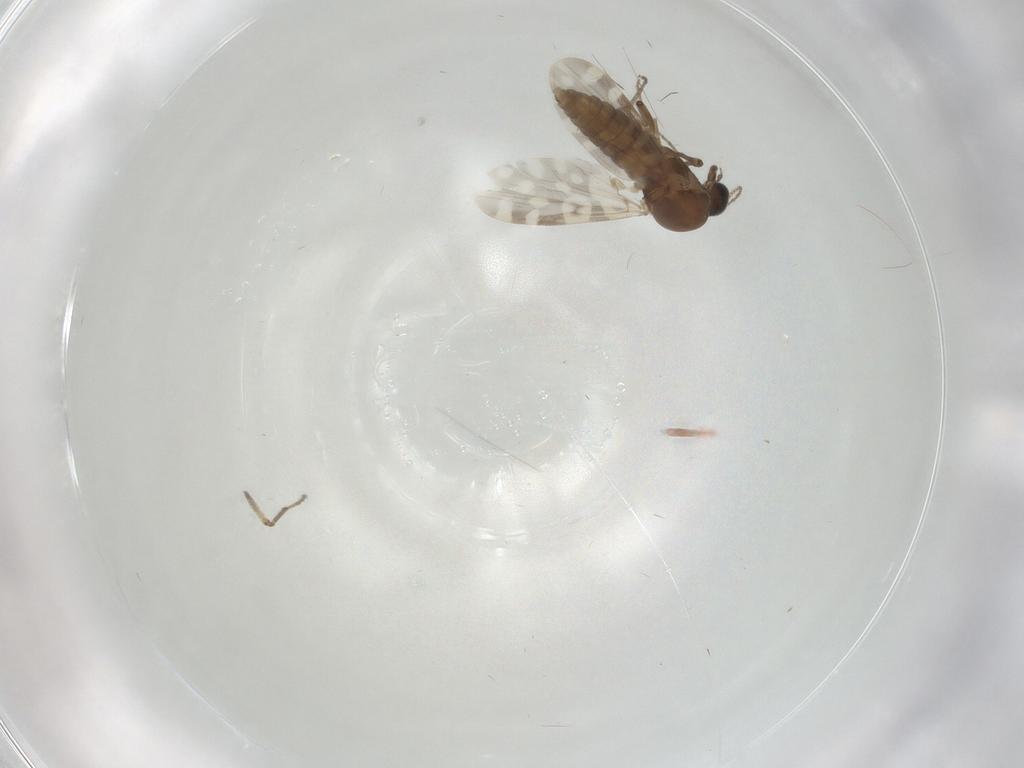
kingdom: Animalia
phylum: Arthropoda
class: Insecta
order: Diptera
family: Chironomidae
